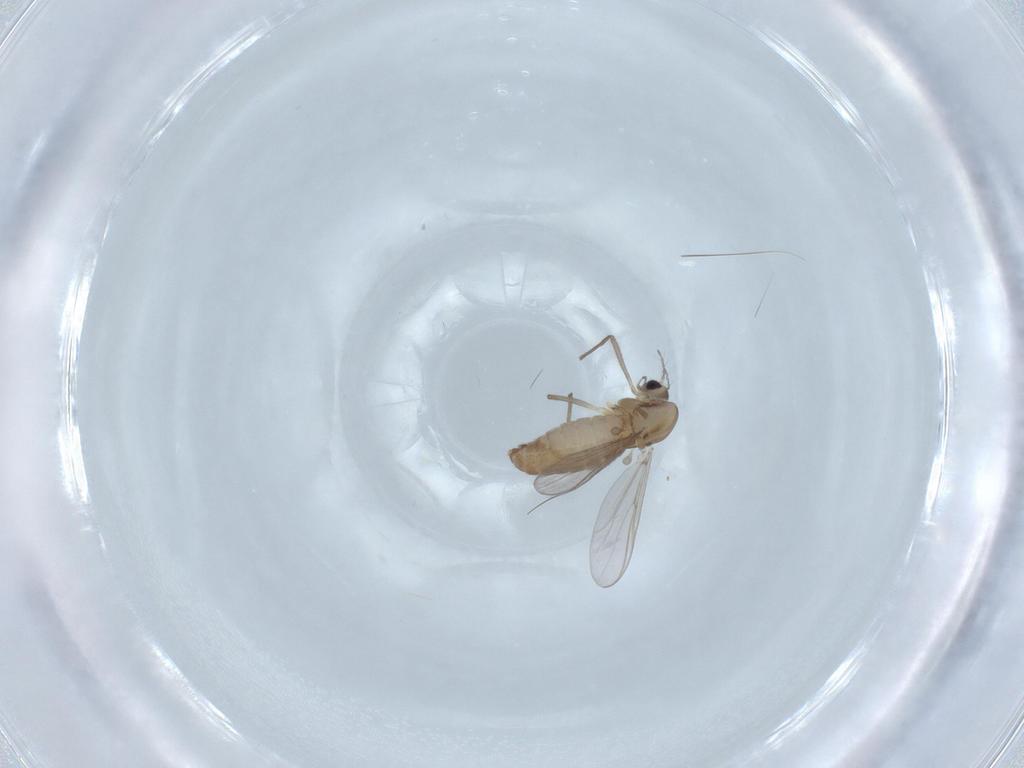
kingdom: Animalia
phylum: Arthropoda
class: Insecta
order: Diptera
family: Phoridae
